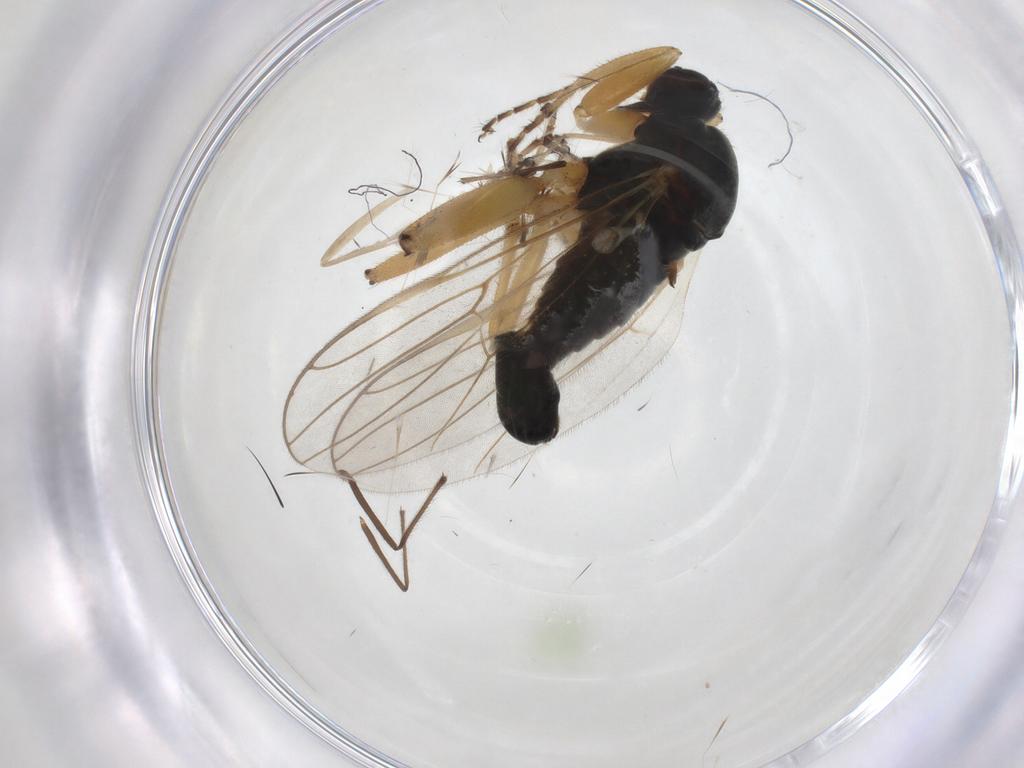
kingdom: Animalia
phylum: Arthropoda
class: Insecta
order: Diptera
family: Hybotidae
